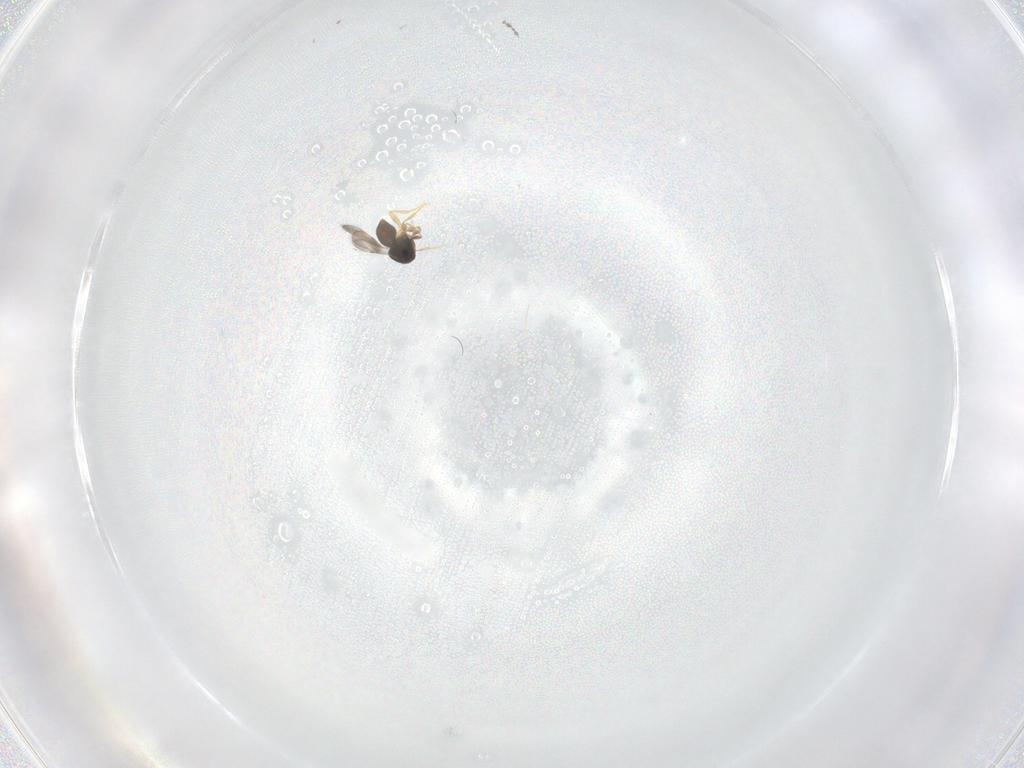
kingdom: Animalia
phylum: Arthropoda
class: Insecta
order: Diptera
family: Cecidomyiidae
